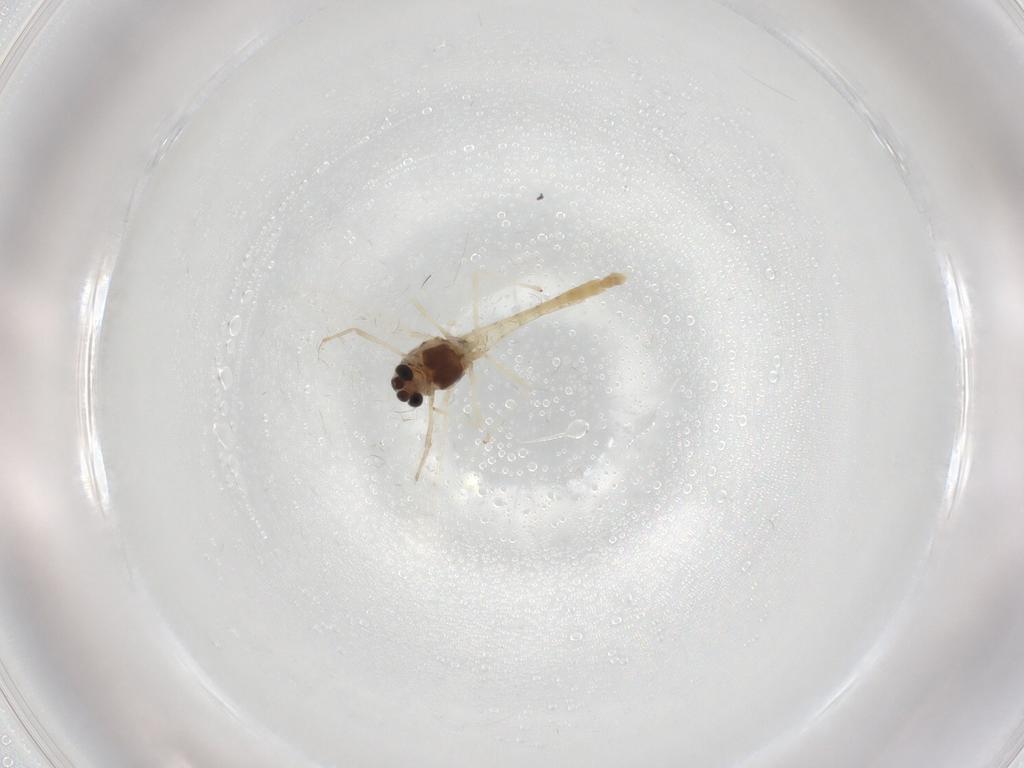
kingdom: Animalia
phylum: Arthropoda
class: Insecta
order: Diptera
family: Chironomidae
